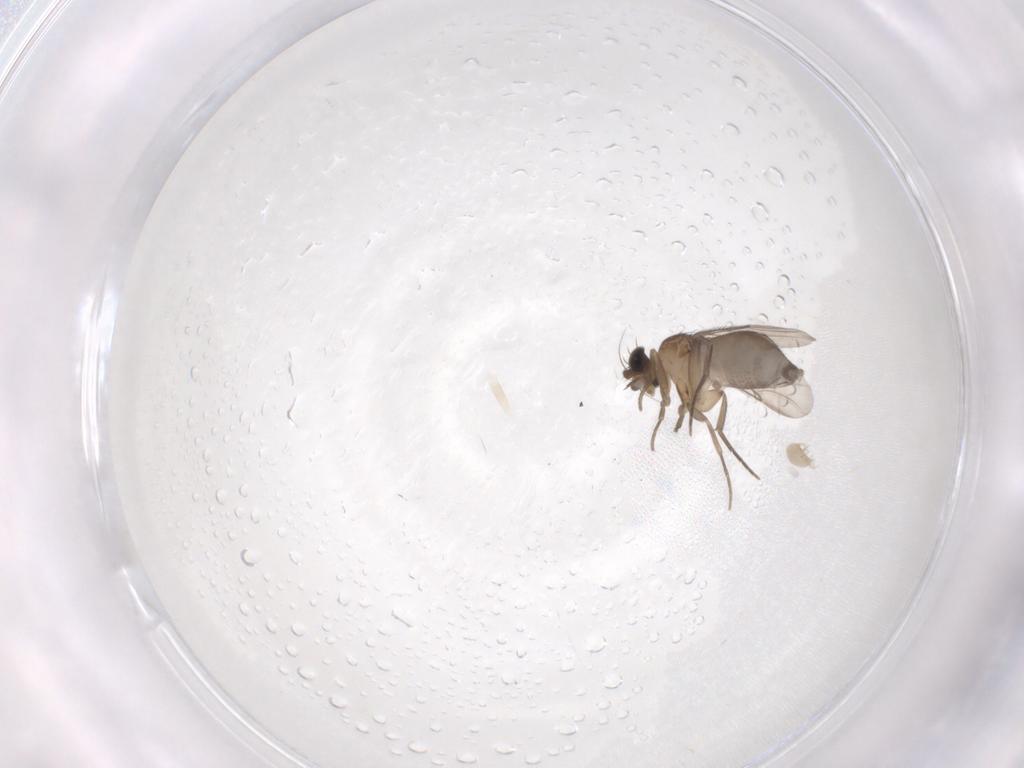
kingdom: Animalia
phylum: Arthropoda
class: Insecta
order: Diptera
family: Phoridae
